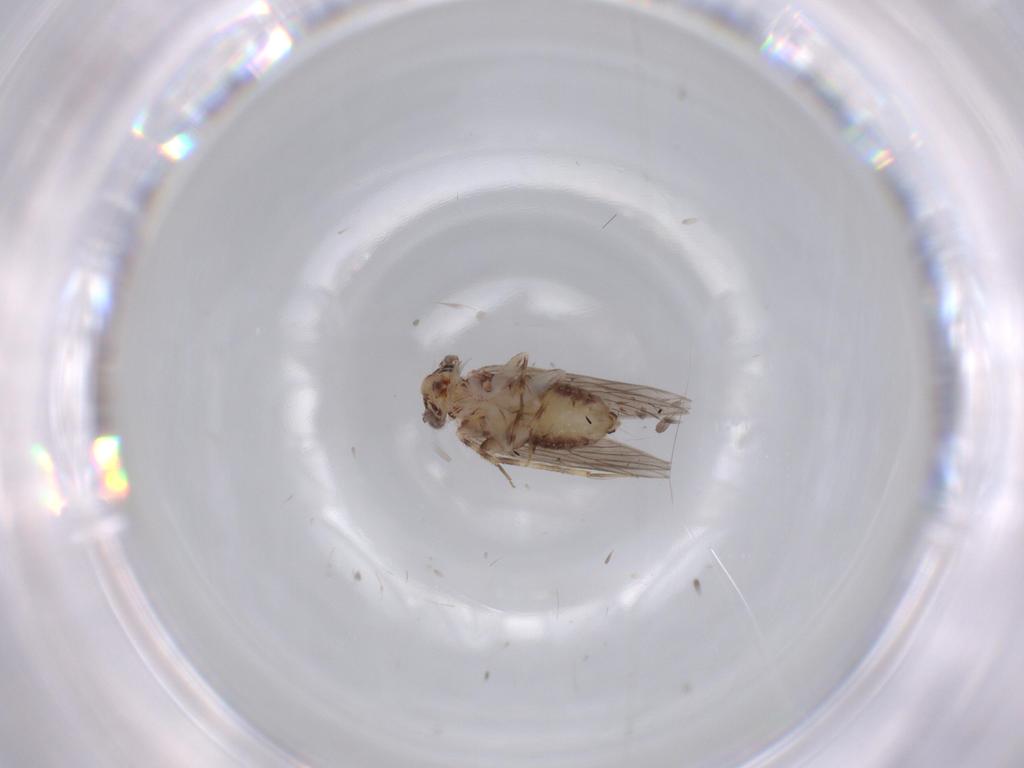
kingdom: Animalia
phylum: Arthropoda
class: Insecta
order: Psocodea
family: Lepidopsocidae
